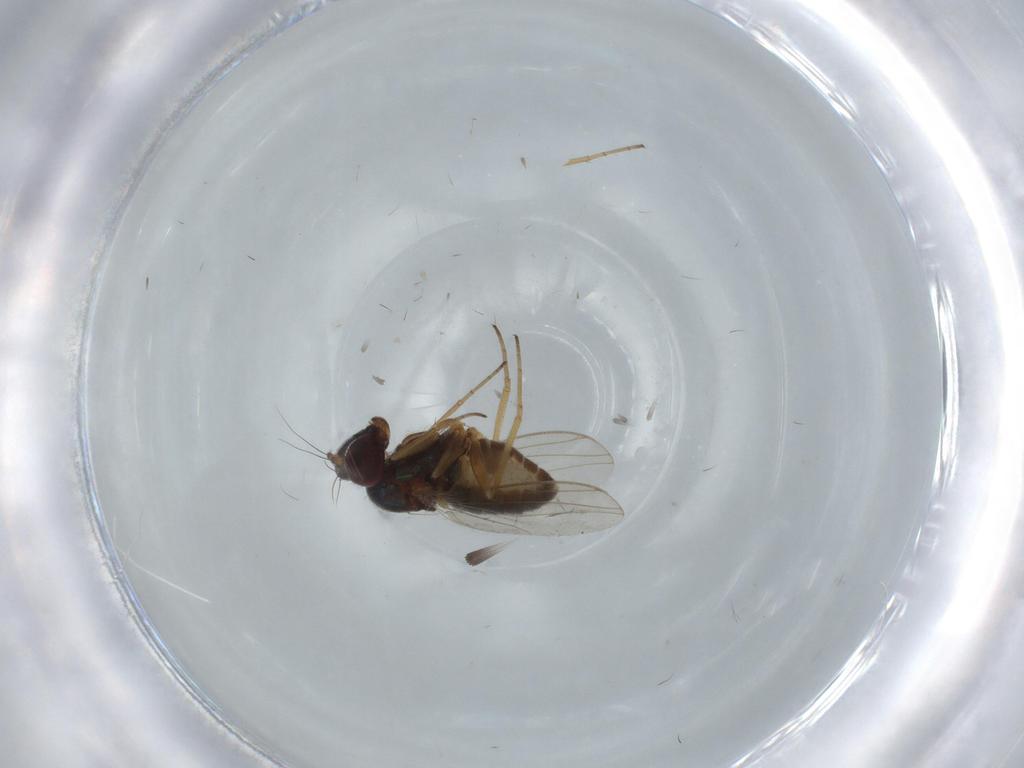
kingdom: Animalia
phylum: Arthropoda
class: Insecta
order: Diptera
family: Dolichopodidae
